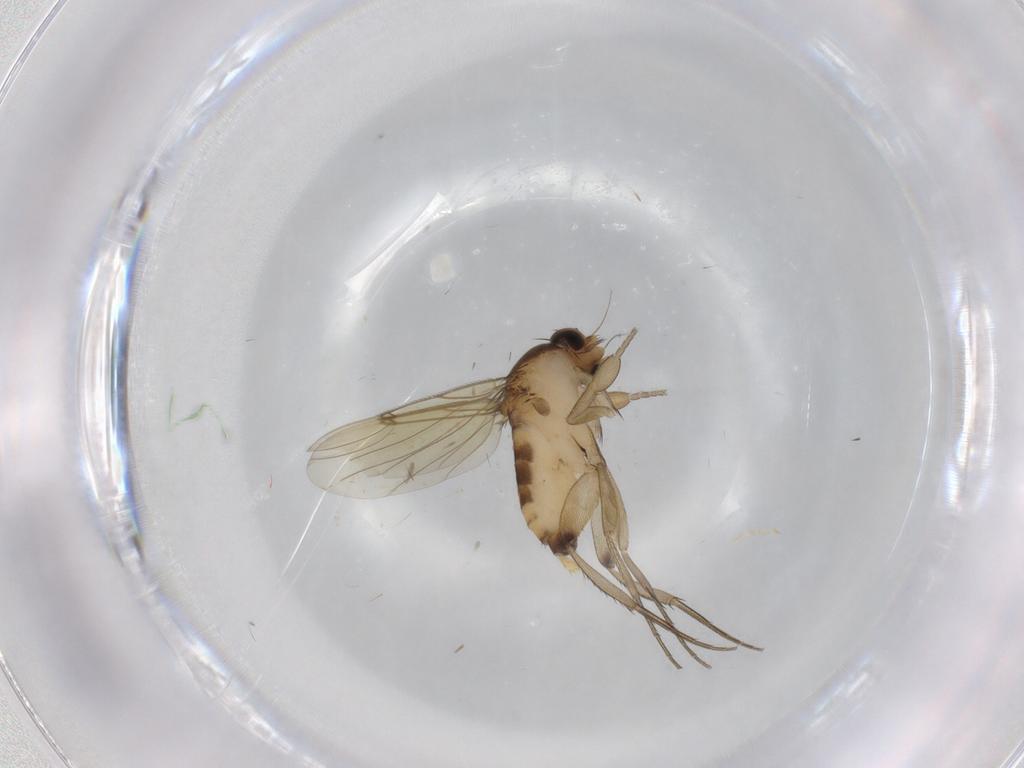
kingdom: Animalia
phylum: Arthropoda
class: Insecta
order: Diptera
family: Phoridae
